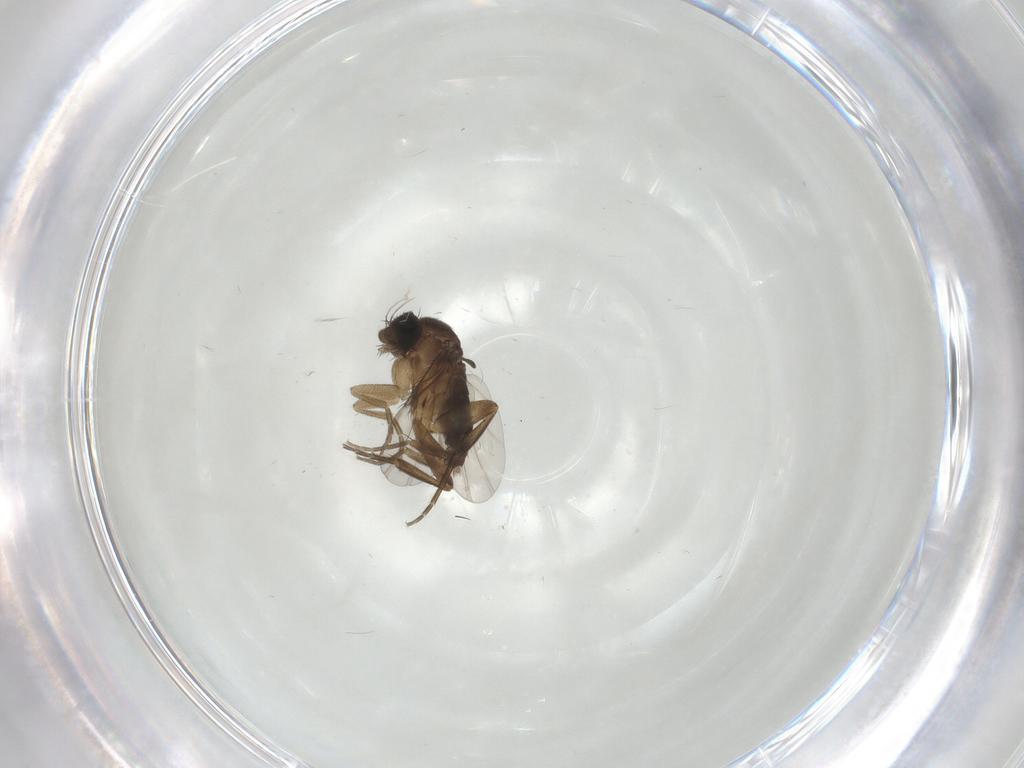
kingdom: Animalia
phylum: Arthropoda
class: Insecta
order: Diptera
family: Phoridae
